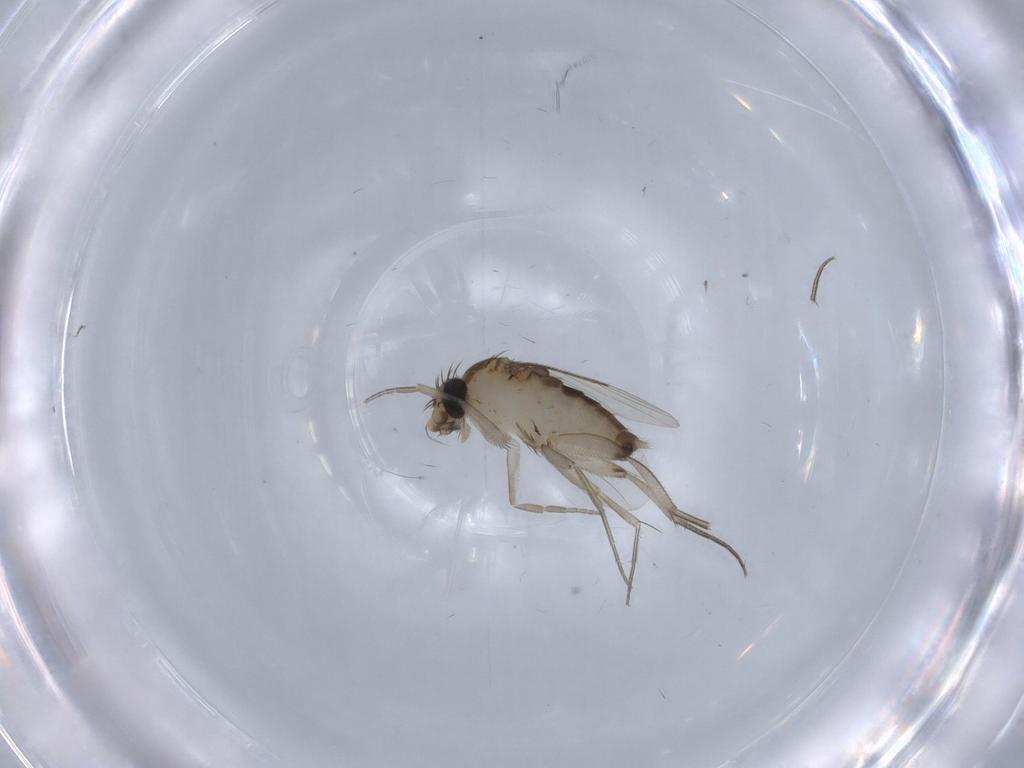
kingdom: Animalia
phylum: Arthropoda
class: Insecta
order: Diptera
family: Phoridae
